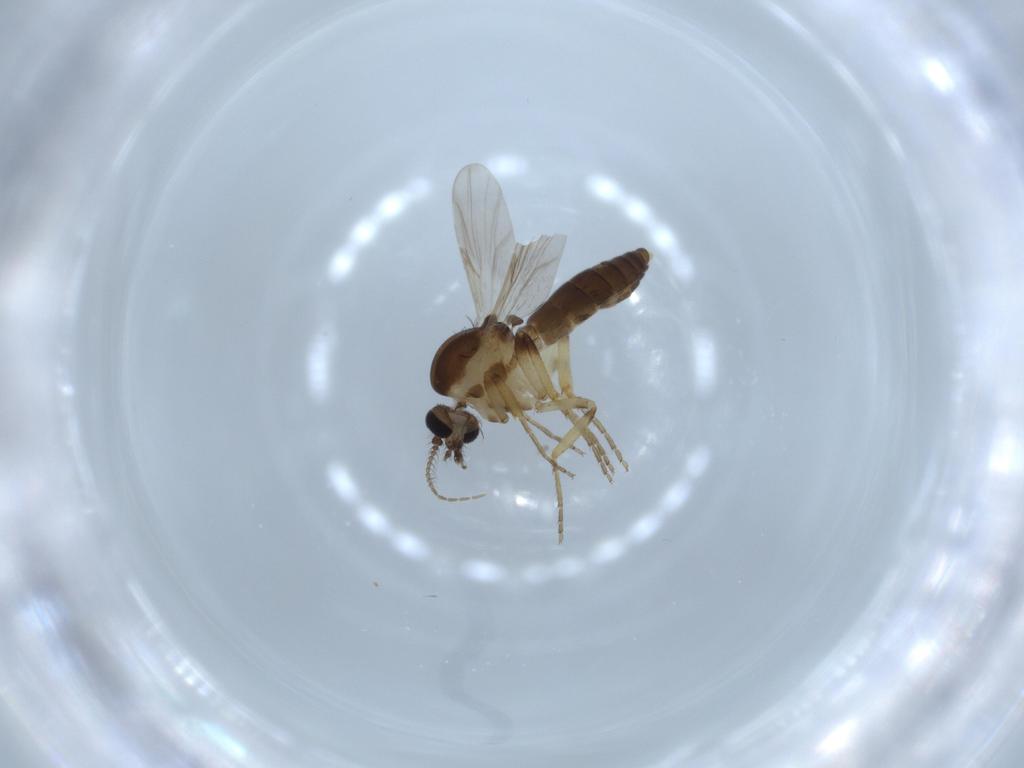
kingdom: Animalia
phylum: Arthropoda
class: Insecta
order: Diptera
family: Ceratopogonidae
